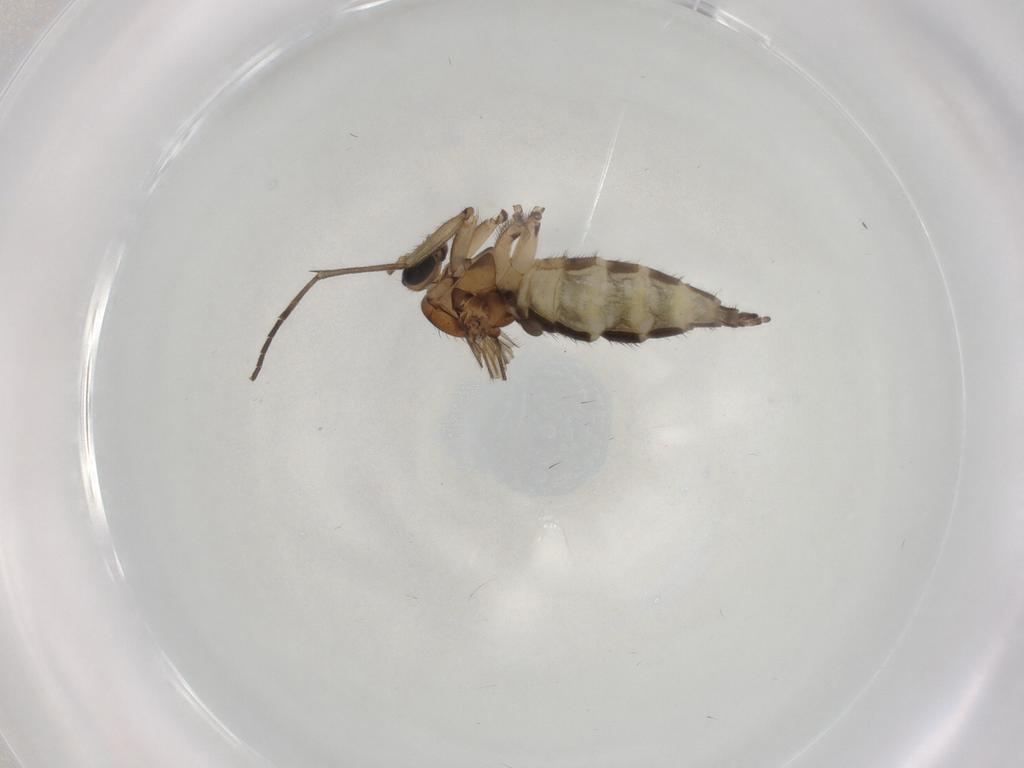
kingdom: Animalia
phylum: Arthropoda
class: Insecta
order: Diptera
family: Sciaridae
